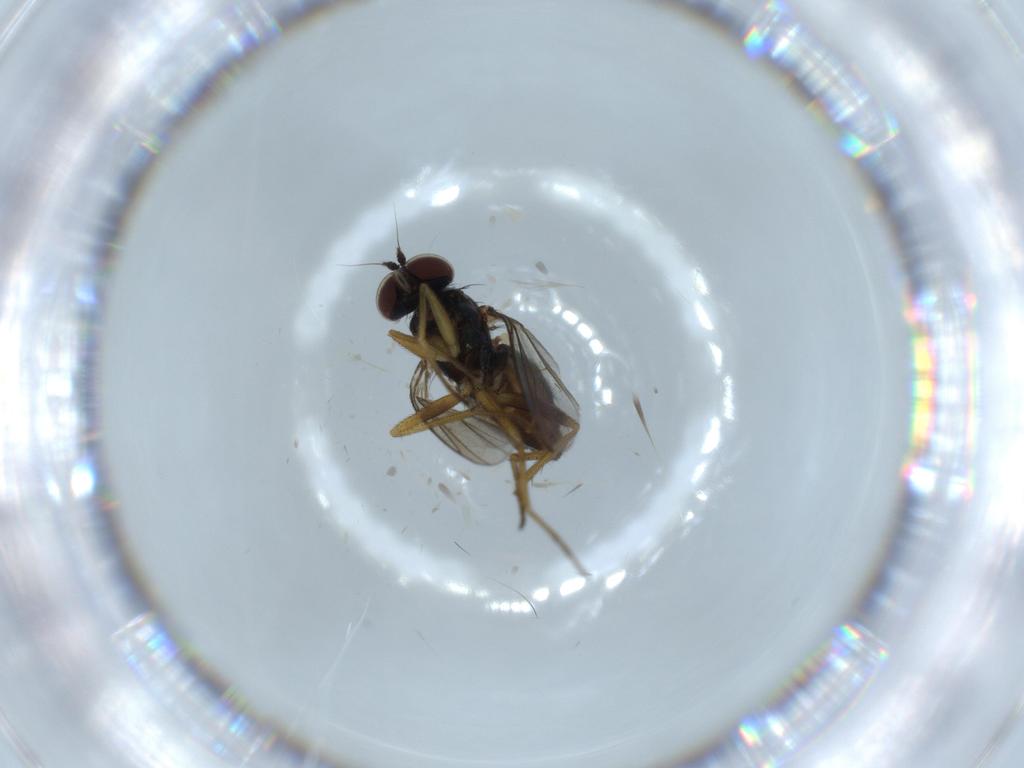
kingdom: Animalia
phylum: Arthropoda
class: Insecta
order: Diptera
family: Dolichopodidae
